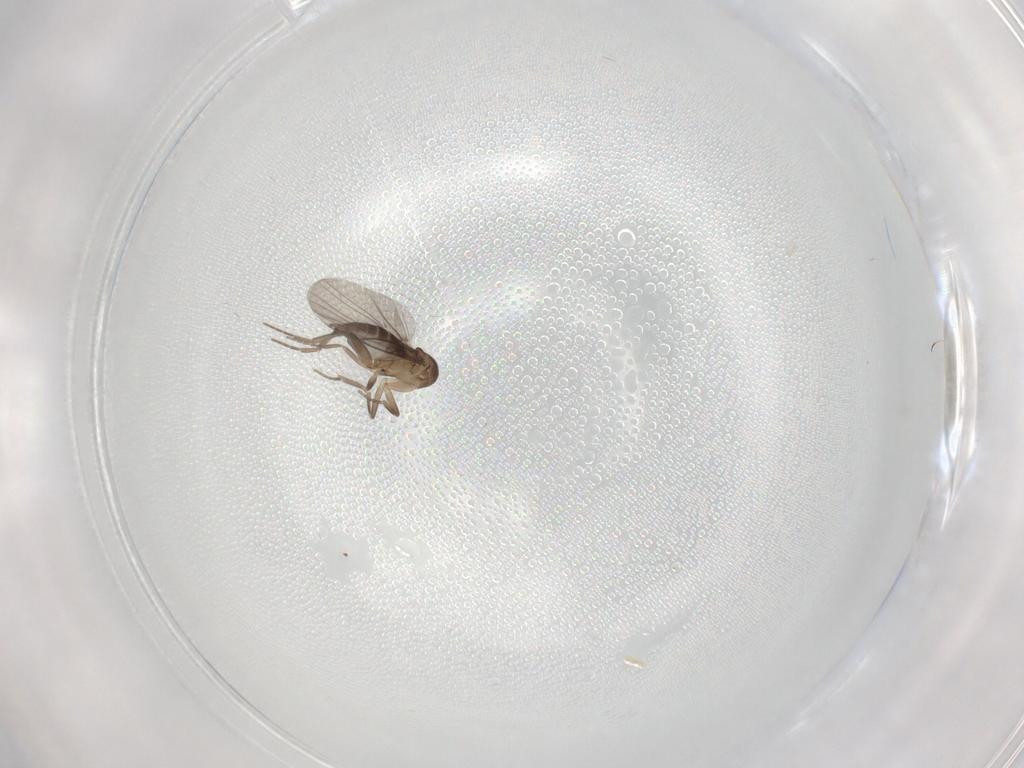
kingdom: Animalia
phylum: Arthropoda
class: Insecta
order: Diptera
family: Phoridae
